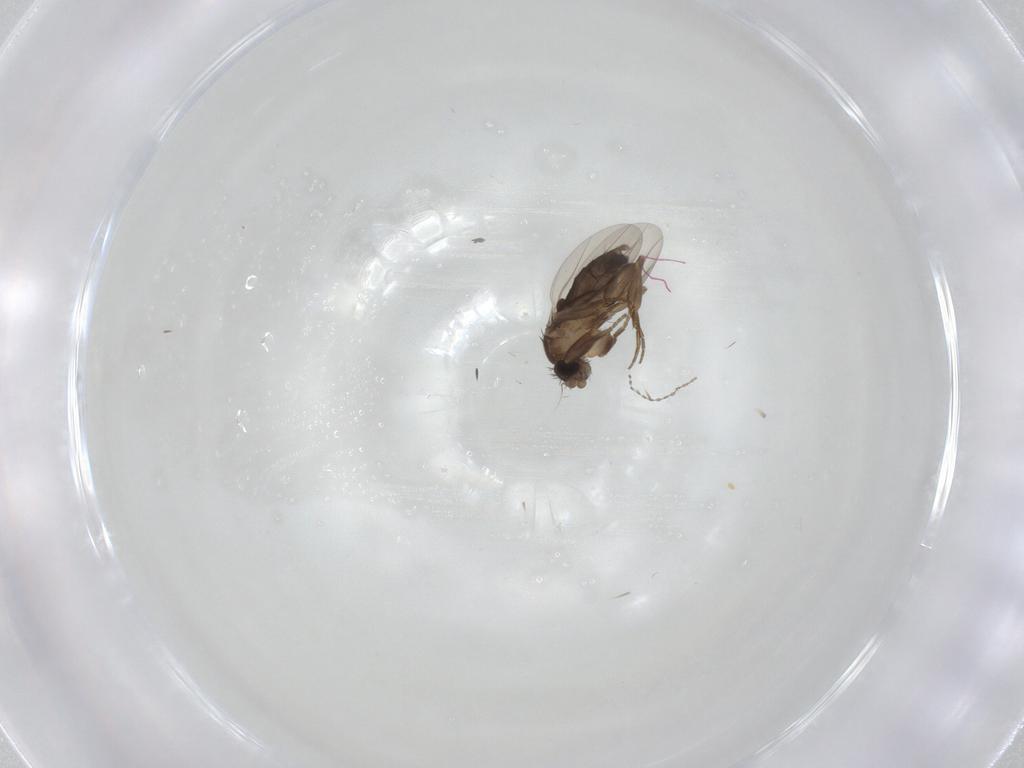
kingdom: Animalia
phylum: Arthropoda
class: Insecta
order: Diptera
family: Phoridae
